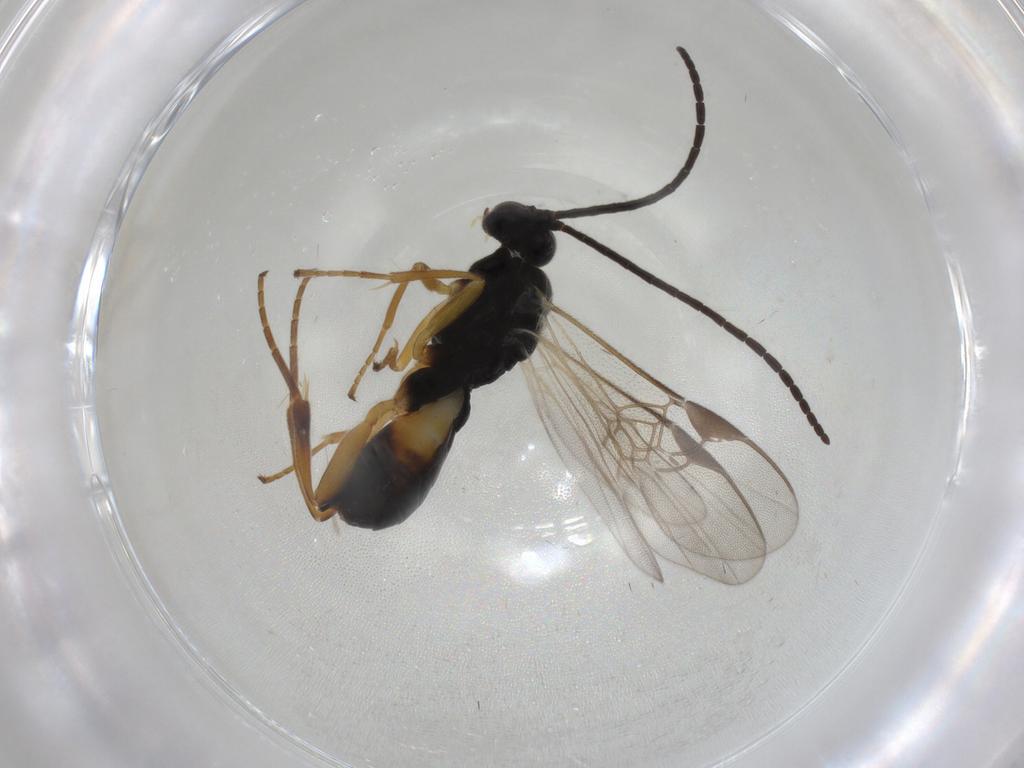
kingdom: Animalia
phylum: Arthropoda
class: Insecta
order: Hymenoptera
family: Braconidae
